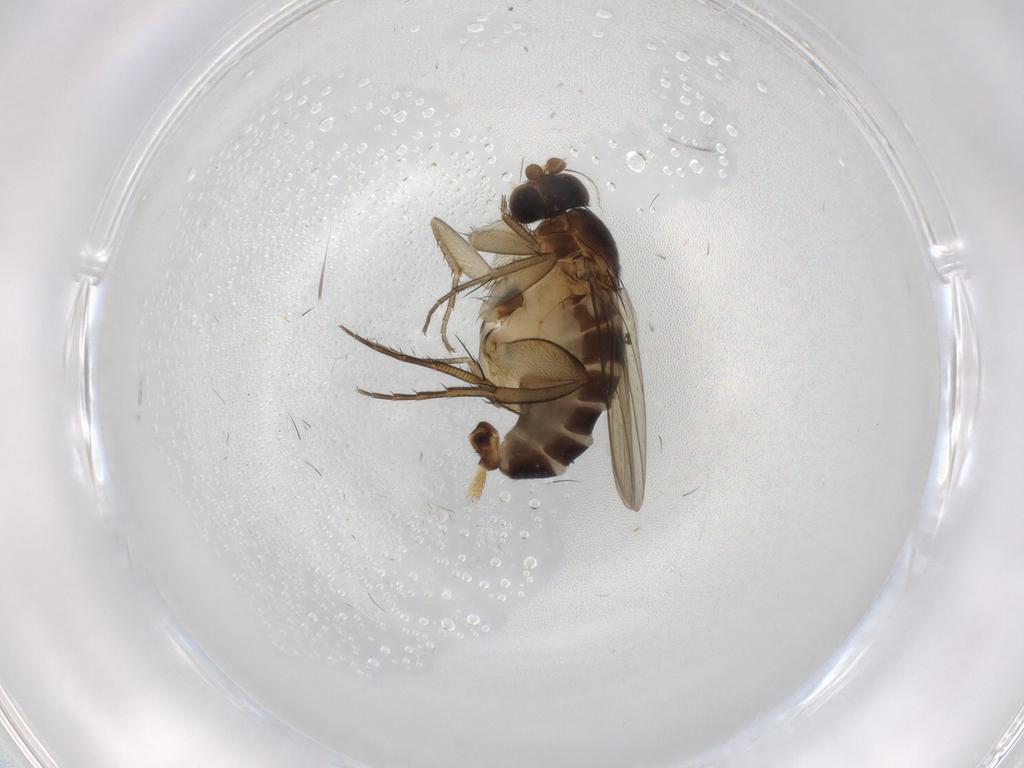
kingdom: Animalia
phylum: Arthropoda
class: Insecta
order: Diptera
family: Chironomidae
